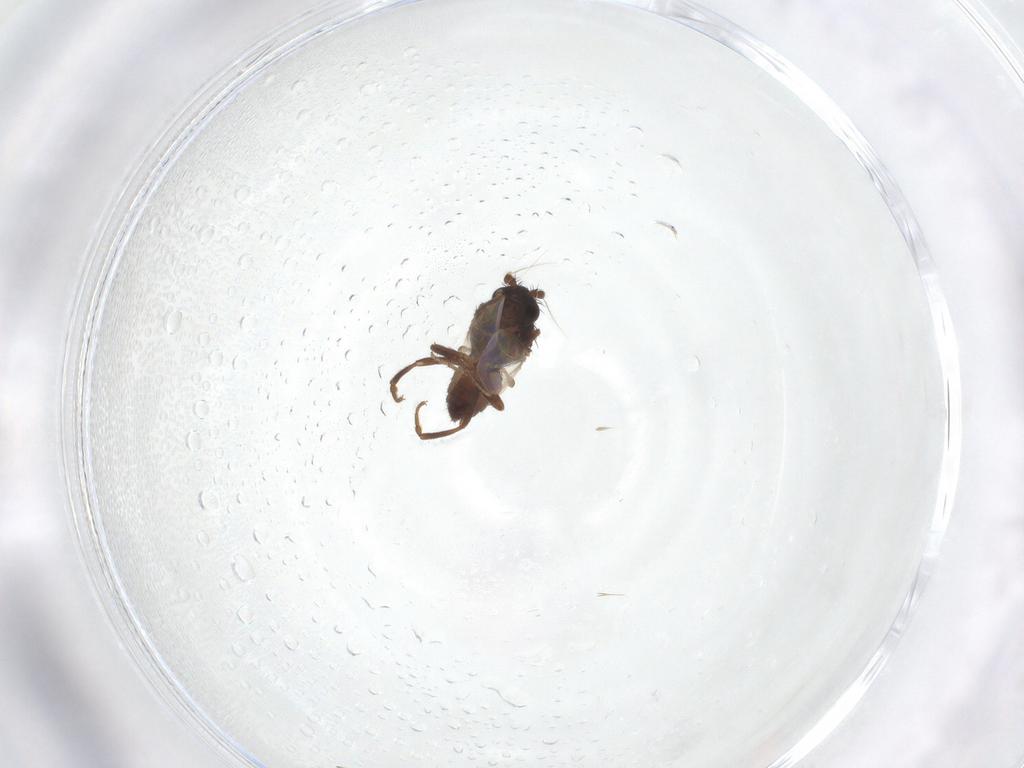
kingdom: Animalia
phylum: Arthropoda
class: Insecta
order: Diptera
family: Sphaeroceridae
